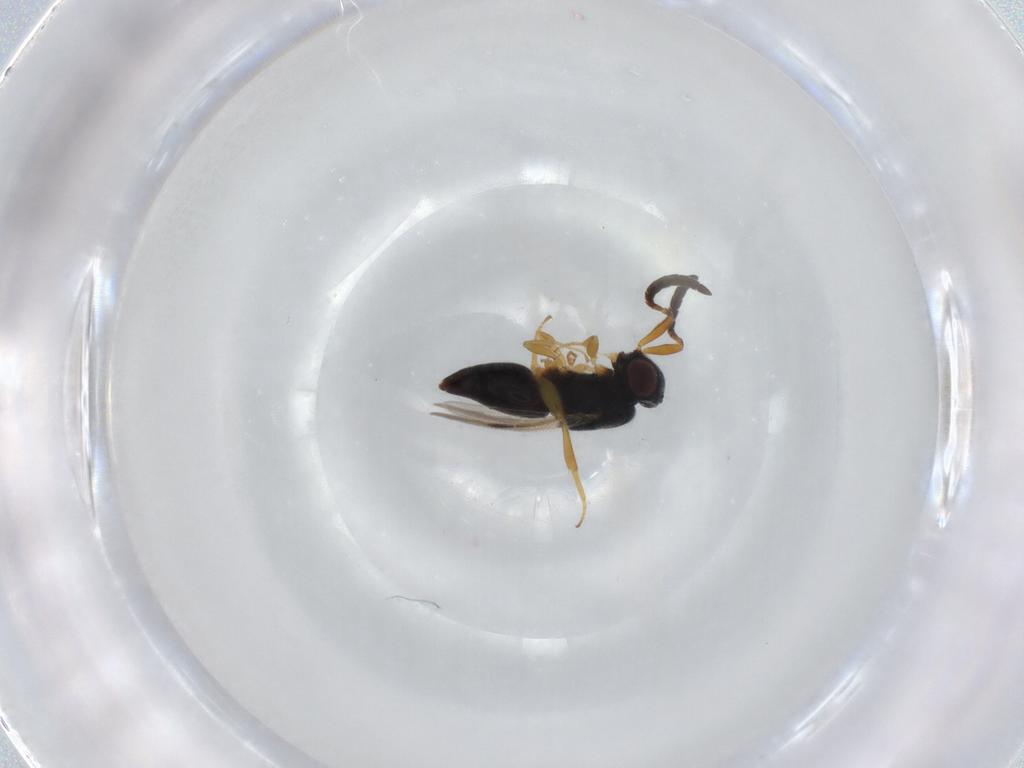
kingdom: Animalia
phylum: Arthropoda
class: Insecta
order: Hymenoptera
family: Megaspilidae
